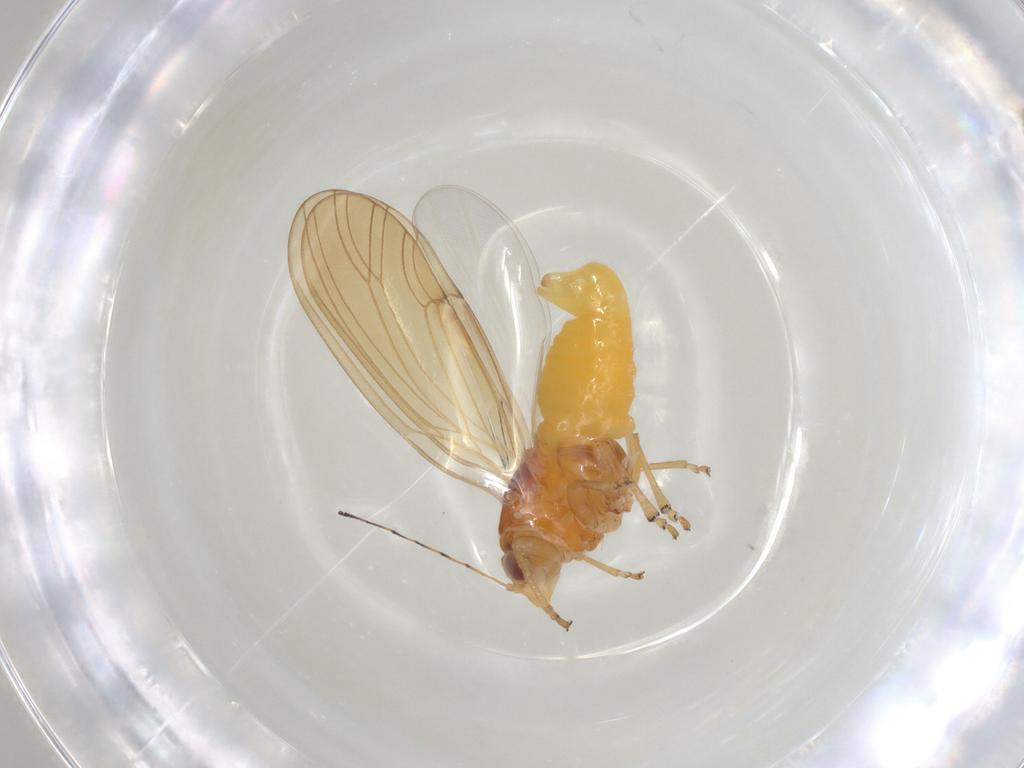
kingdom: Animalia
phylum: Arthropoda
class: Insecta
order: Hemiptera
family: Psylloidea_incertae_sedis
